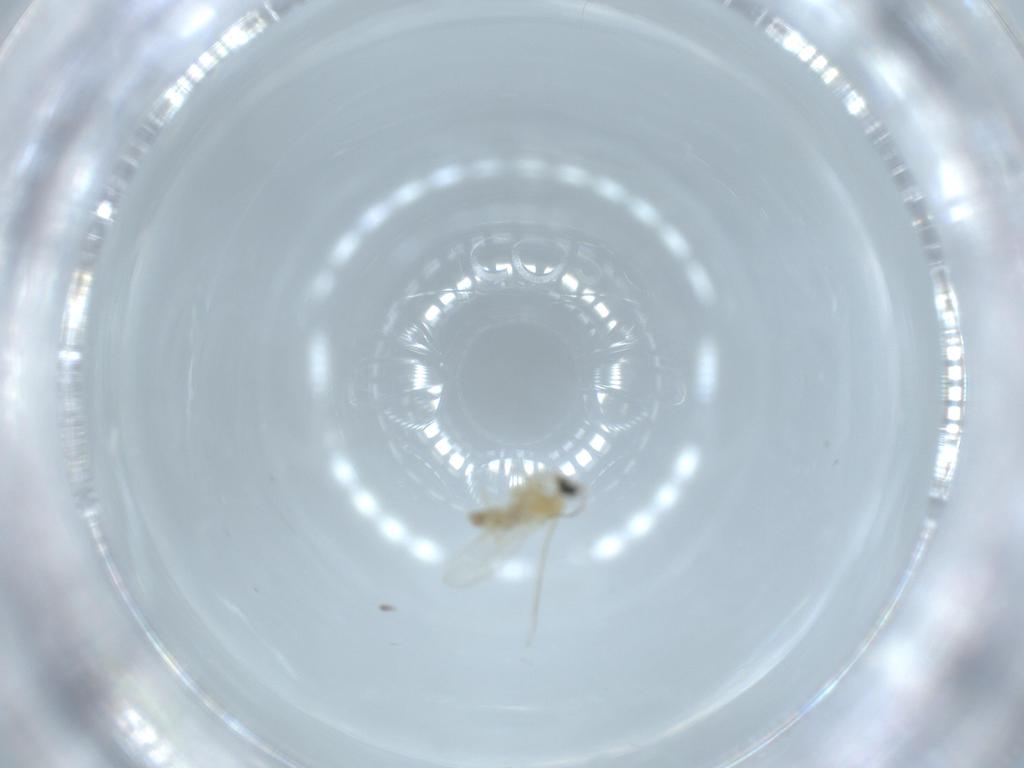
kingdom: Animalia
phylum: Arthropoda
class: Insecta
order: Diptera
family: Cecidomyiidae
